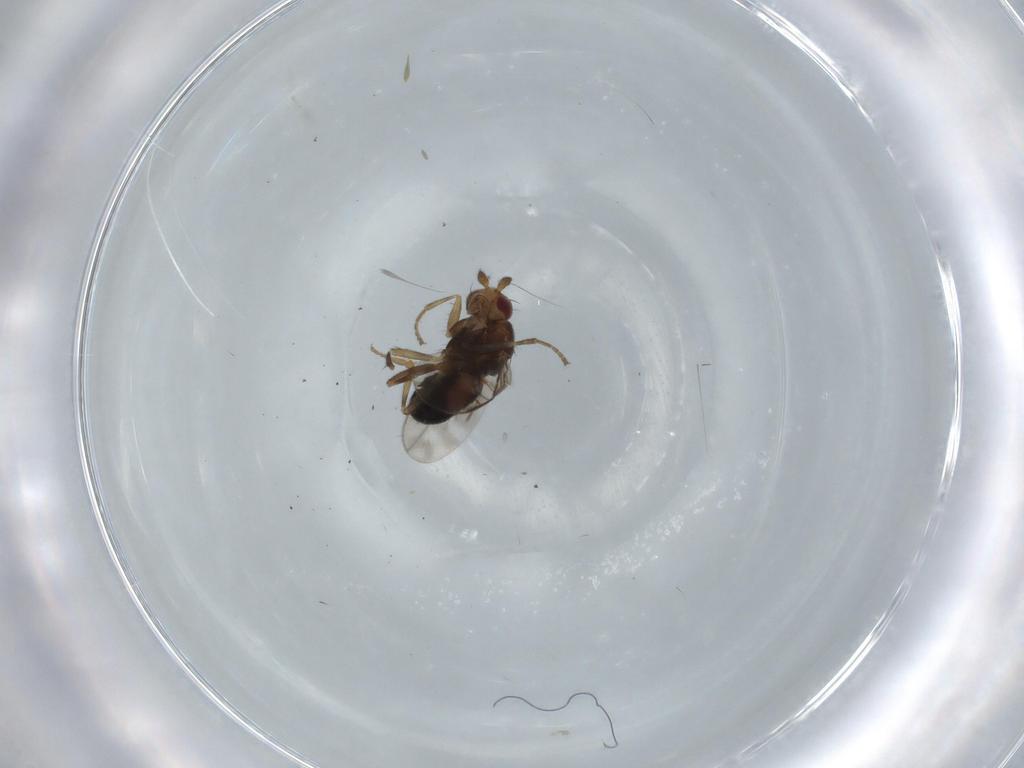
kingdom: Animalia
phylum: Arthropoda
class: Insecta
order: Diptera
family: Sphaeroceridae
